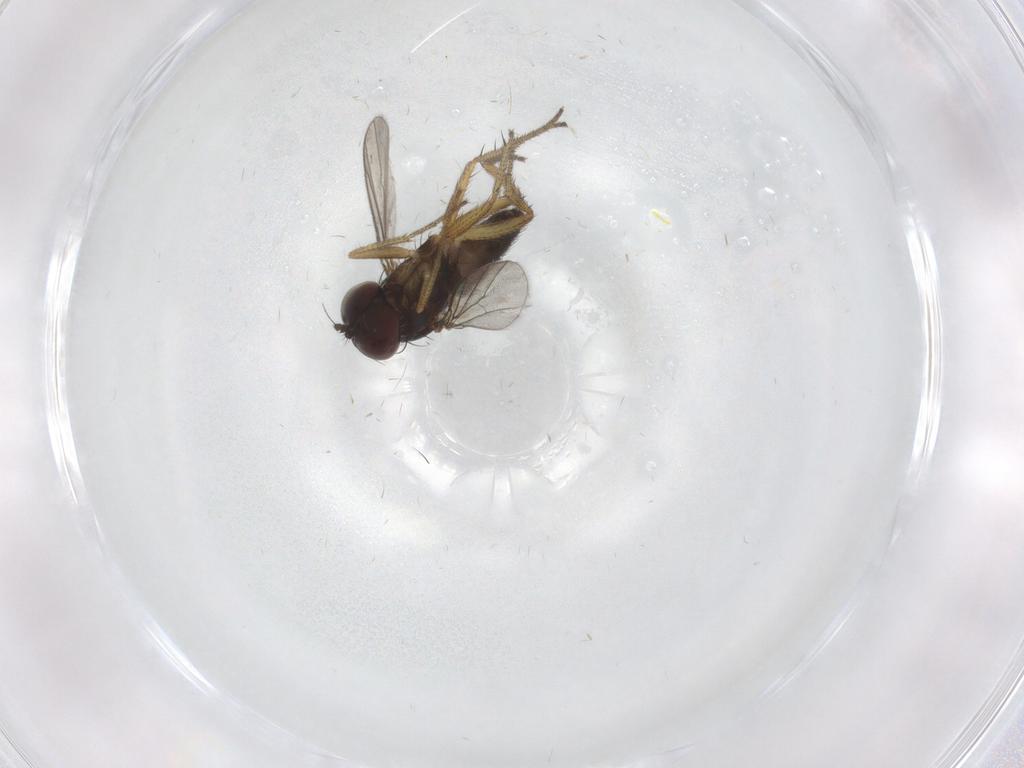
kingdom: Animalia
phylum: Arthropoda
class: Insecta
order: Diptera
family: Dolichopodidae
